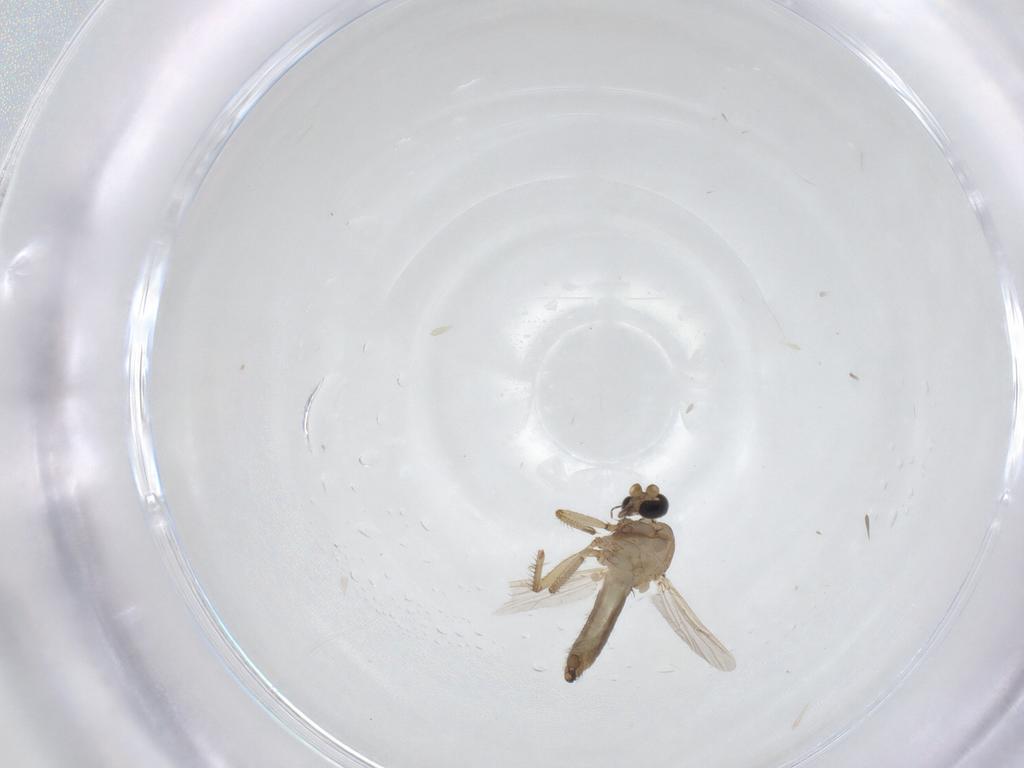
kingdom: Animalia
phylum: Arthropoda
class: Insecta
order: Diptera
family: Ceratopogonidae
